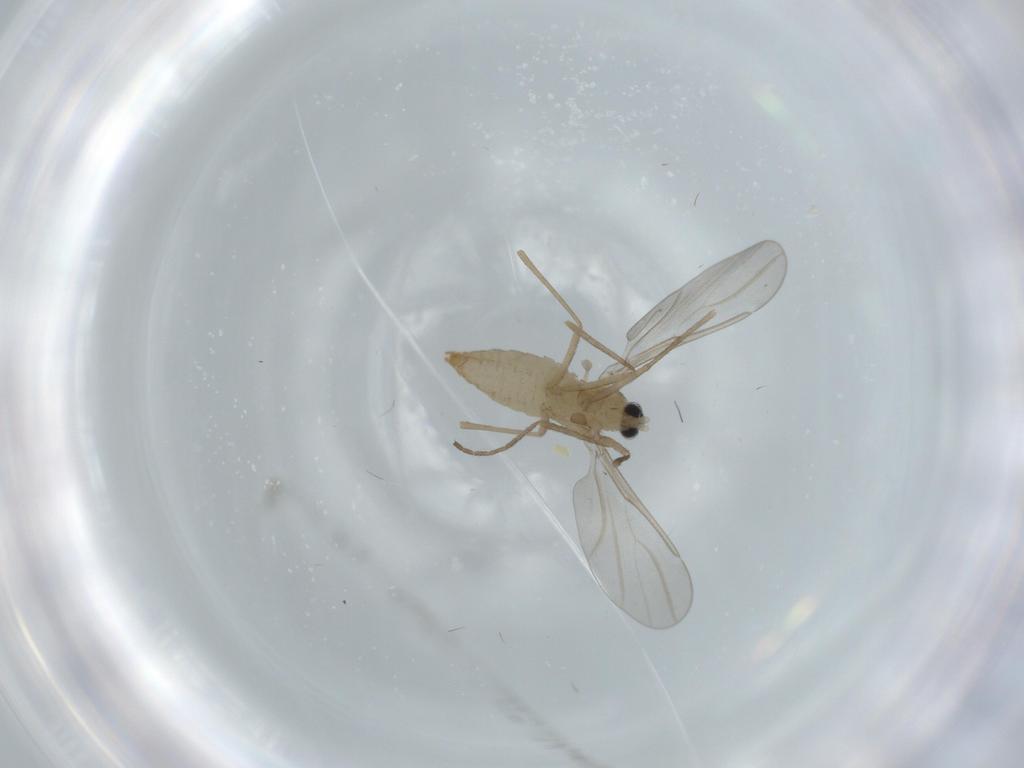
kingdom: Animalia
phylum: Arthropoda
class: Insecta
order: Diptera
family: Mycetophilidae
